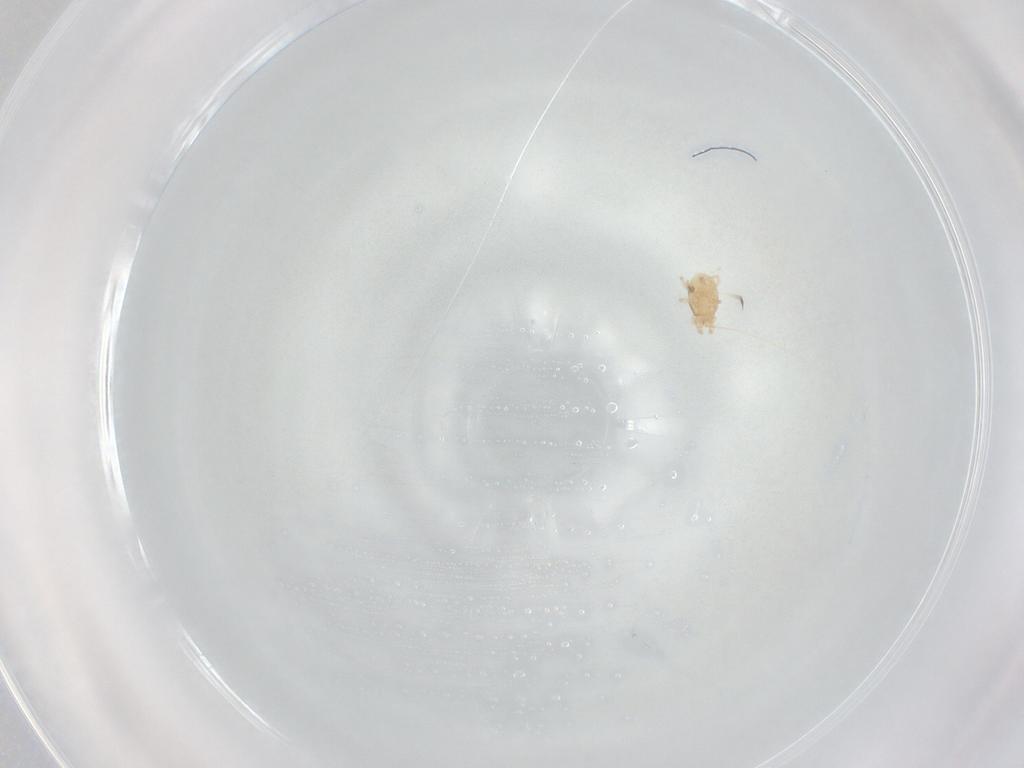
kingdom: Animalia
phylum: Arthropoda
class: Arachnida
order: Mesostigmata
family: Melicharidae
